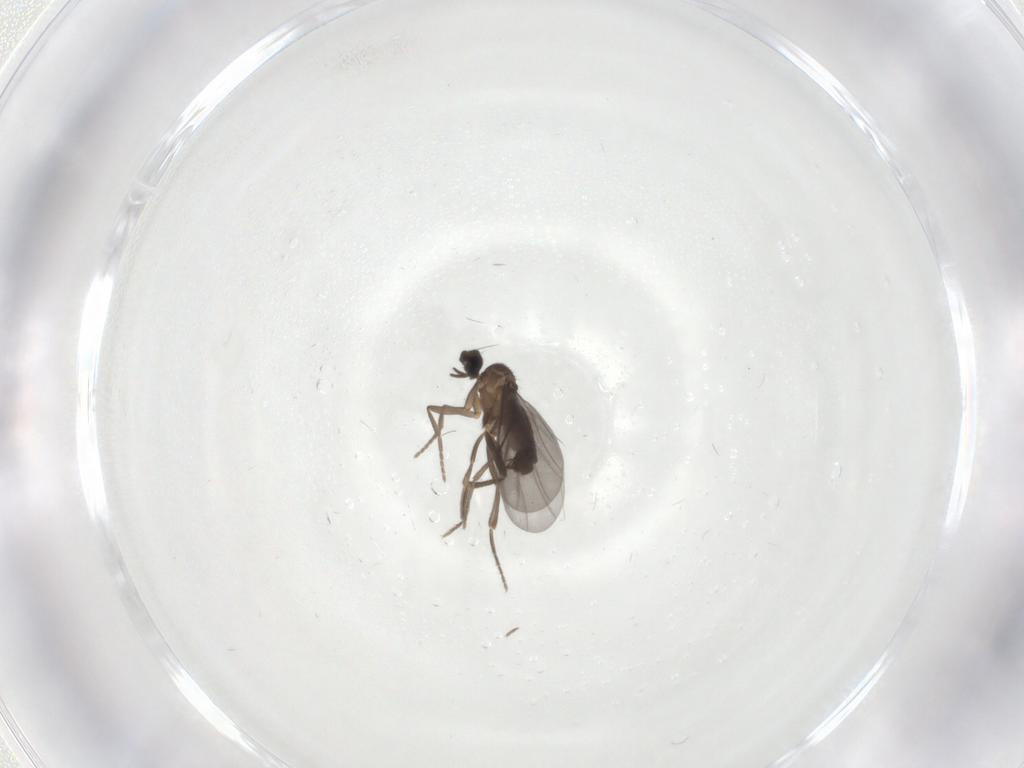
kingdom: Animalia
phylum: Arthropoda
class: Insecta
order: Diptera
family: Phoridae
